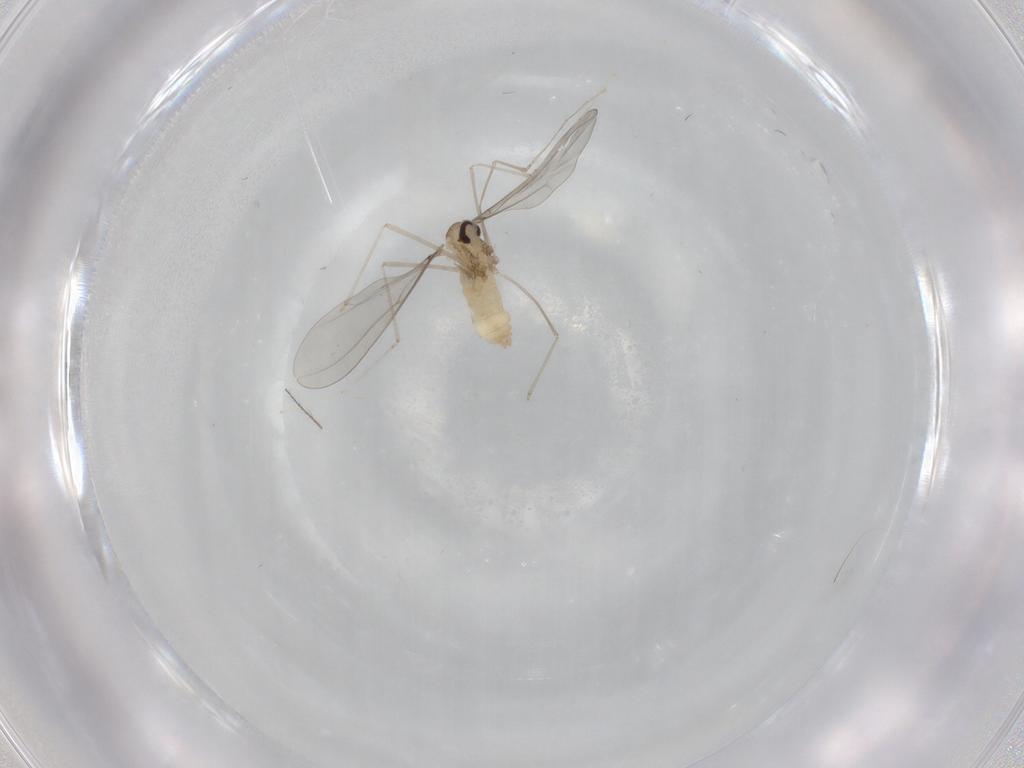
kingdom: Animalia
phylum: Arthropoda
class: Insecta
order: Diptera
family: Cecidomyiidae
